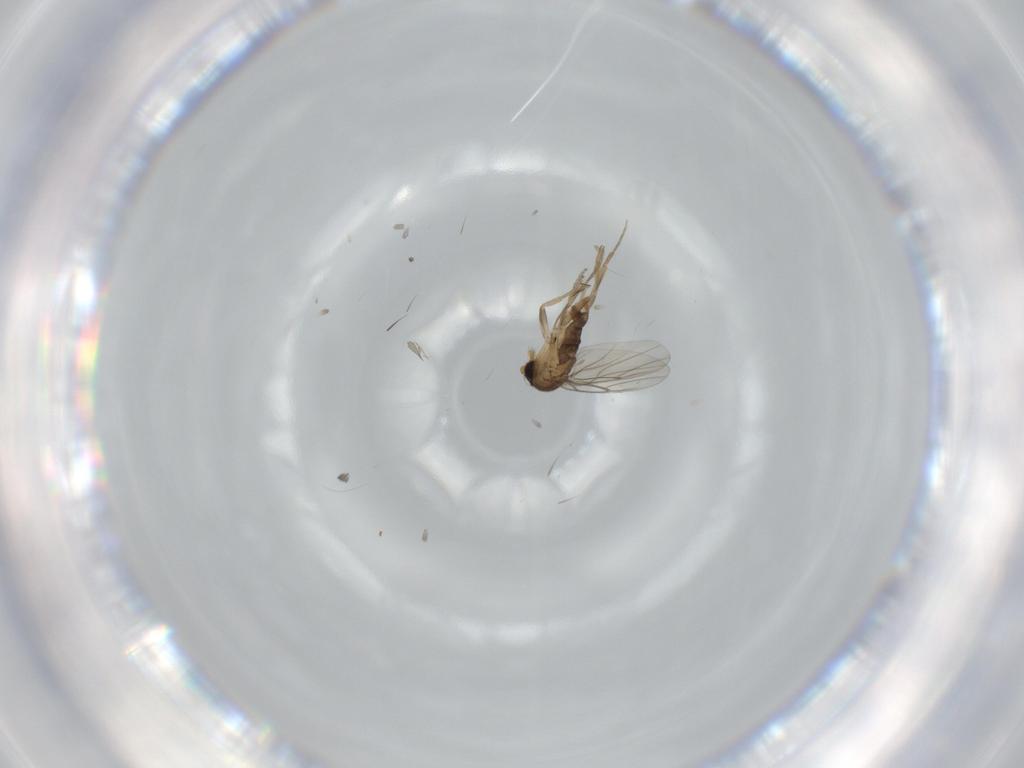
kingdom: Animalia
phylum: Arthropoda
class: Insecta
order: Diptera
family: Phoridae
